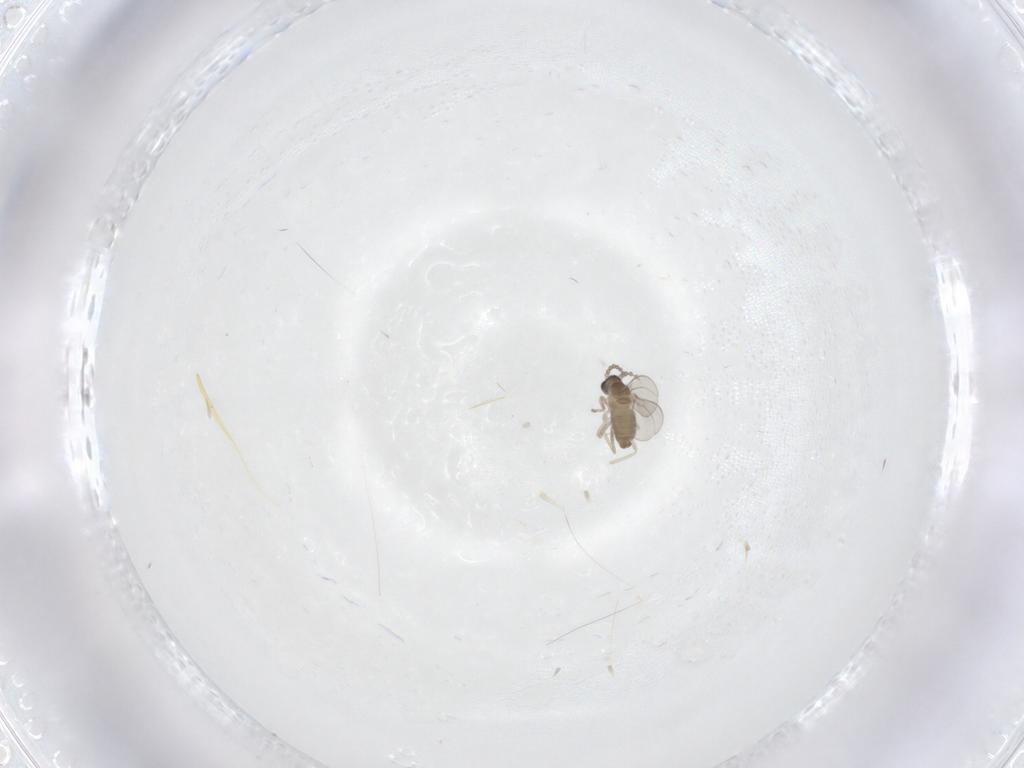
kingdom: Animalia
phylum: Arthropoda
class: Insecta
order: Diptera
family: Cecidomyiidae
